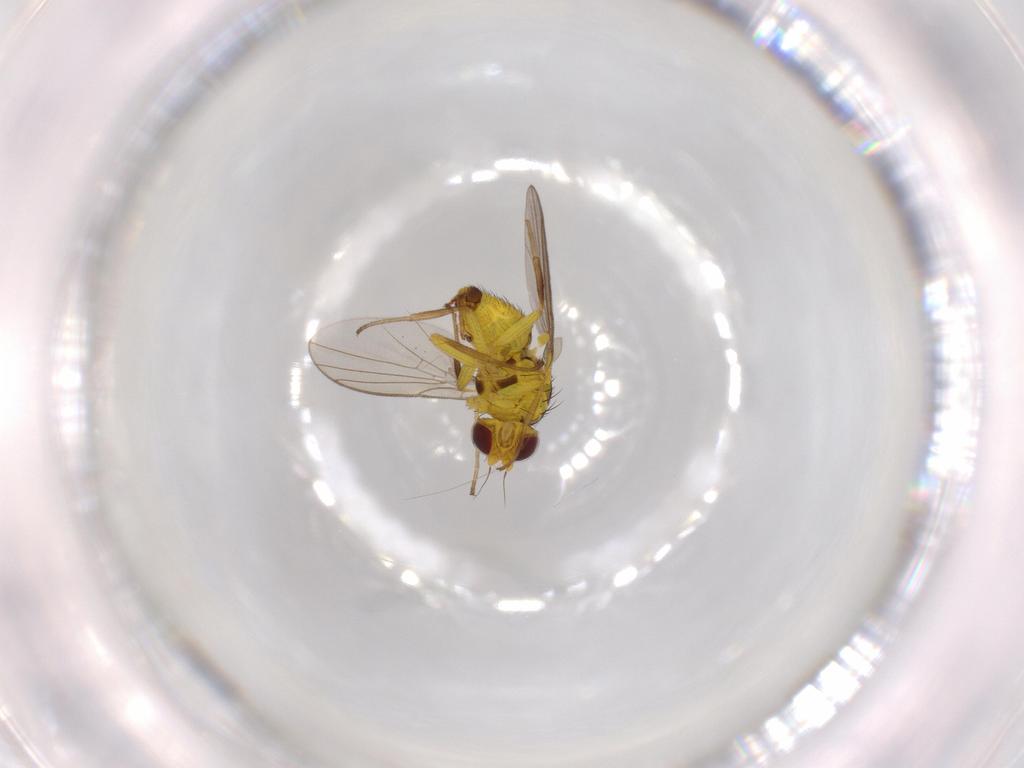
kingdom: Animalia
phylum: Arthropoda
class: Insecta
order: Diptera
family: Agromyzidae
